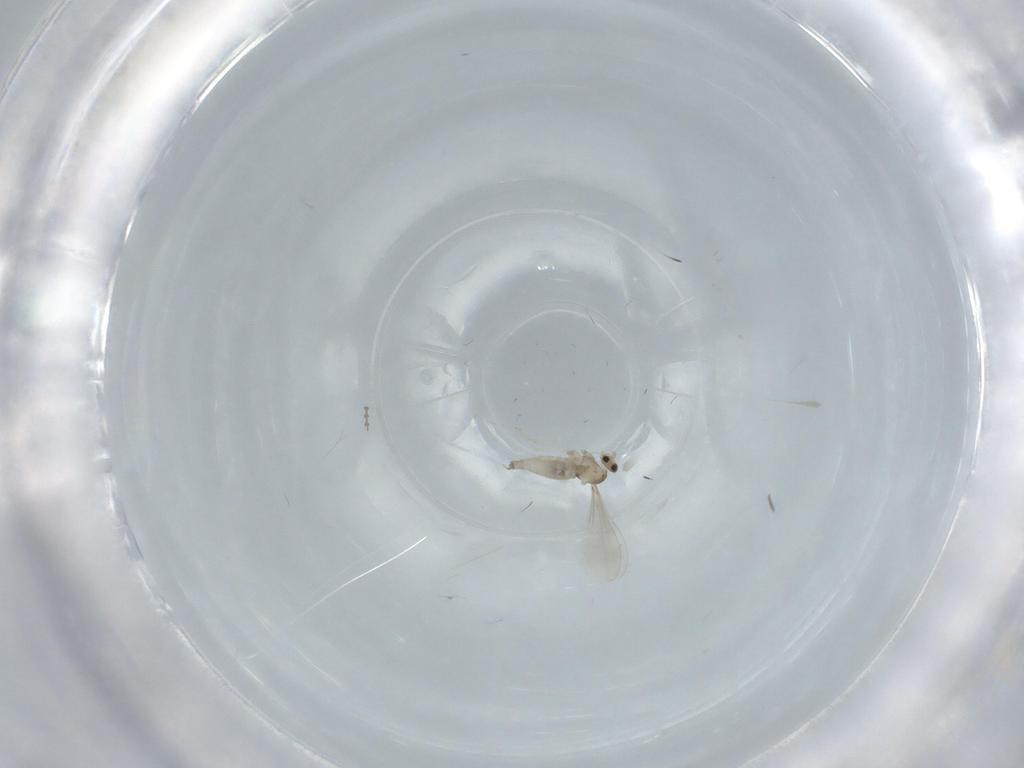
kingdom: Animalia
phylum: Arthropoda
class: Insecta
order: Diptera
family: Cecidomyiidae
